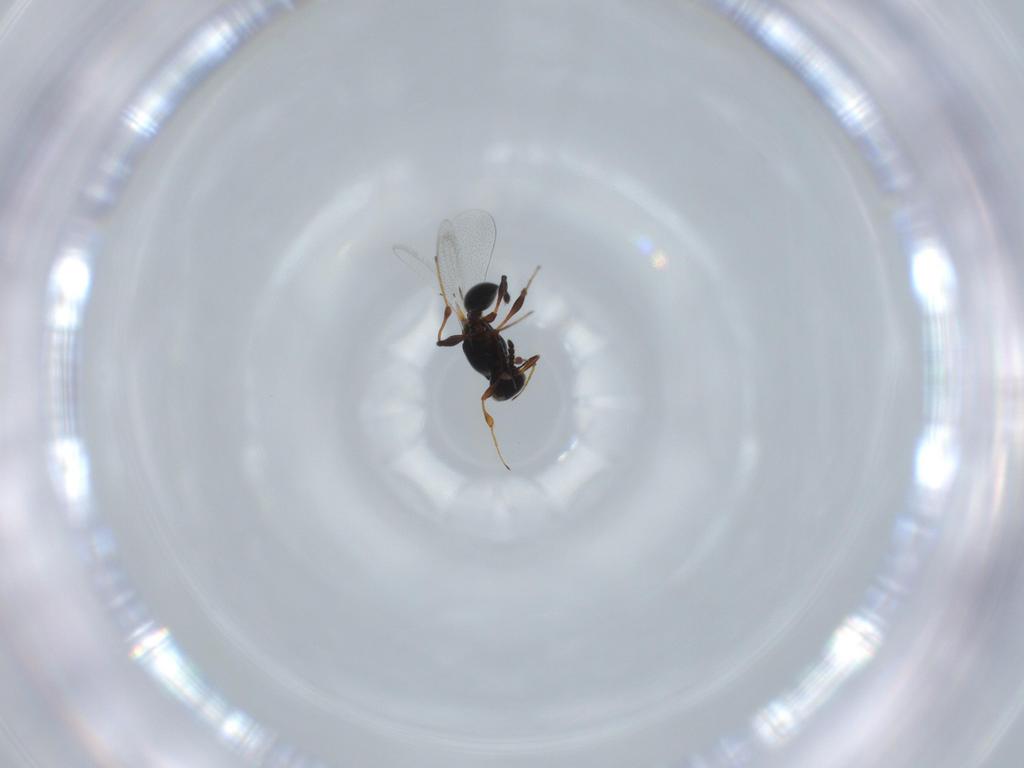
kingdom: Animalia
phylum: Arthropoda
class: Insecta
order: Hymenoptera
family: Platygastridae
